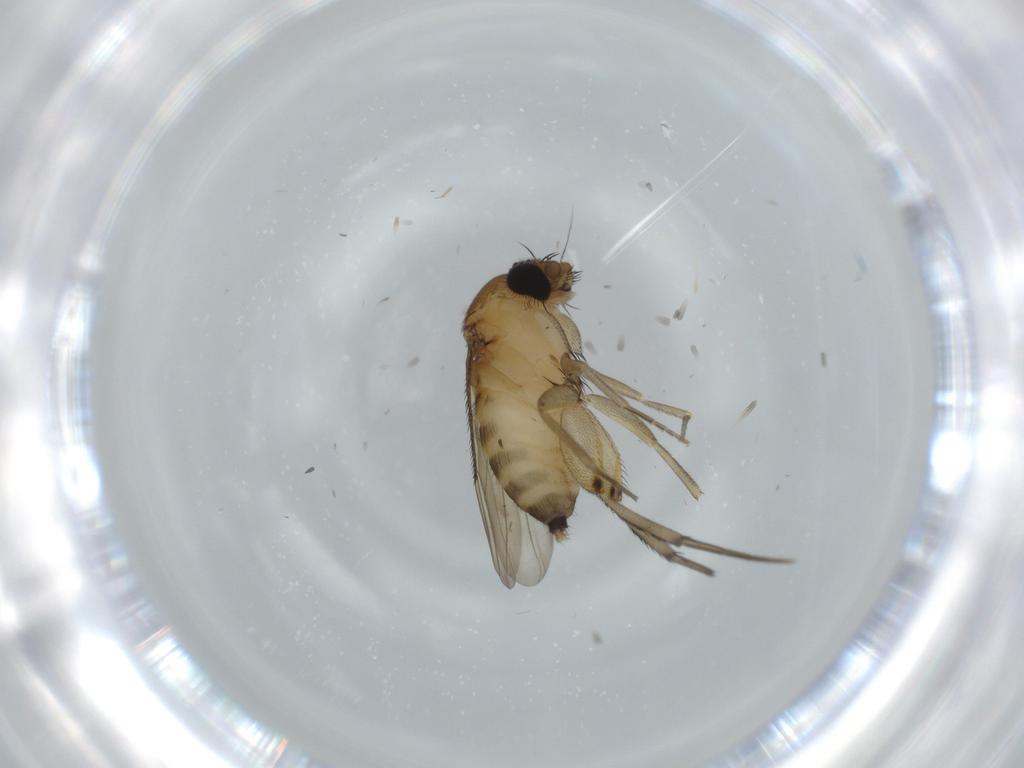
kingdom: Animalia
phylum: Arthropoda
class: Insecta
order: Diptera
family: Phoridae
